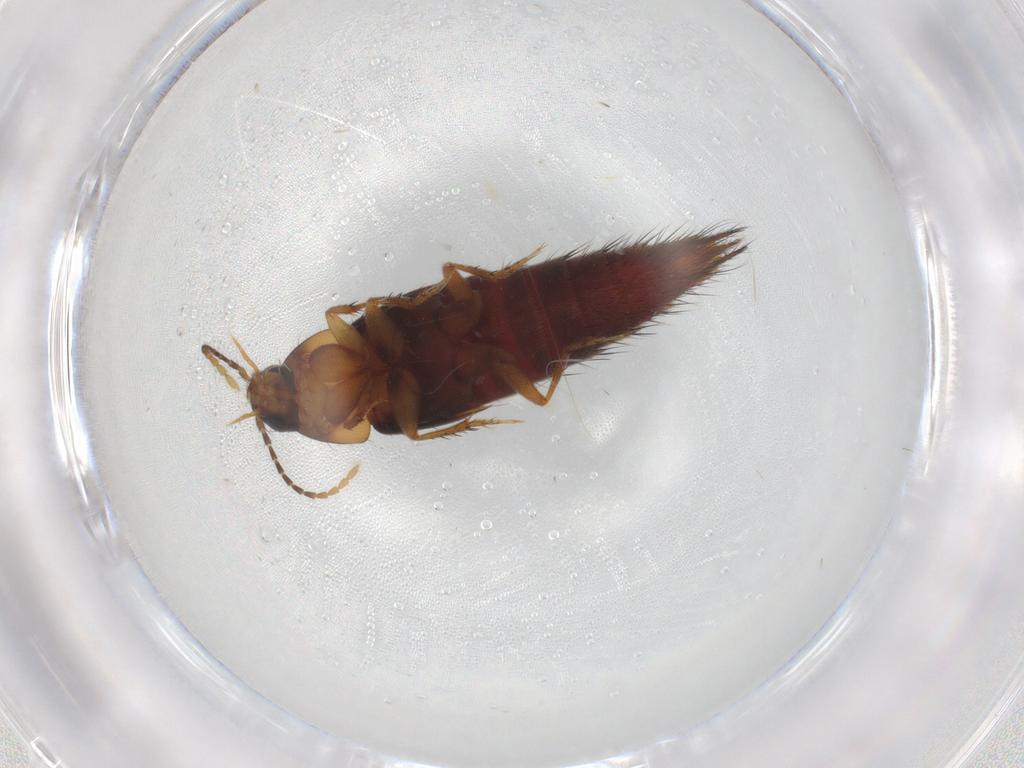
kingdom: Animalia
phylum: Arthropoda
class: Insecta
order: Coleoptera
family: Staphylinidae
